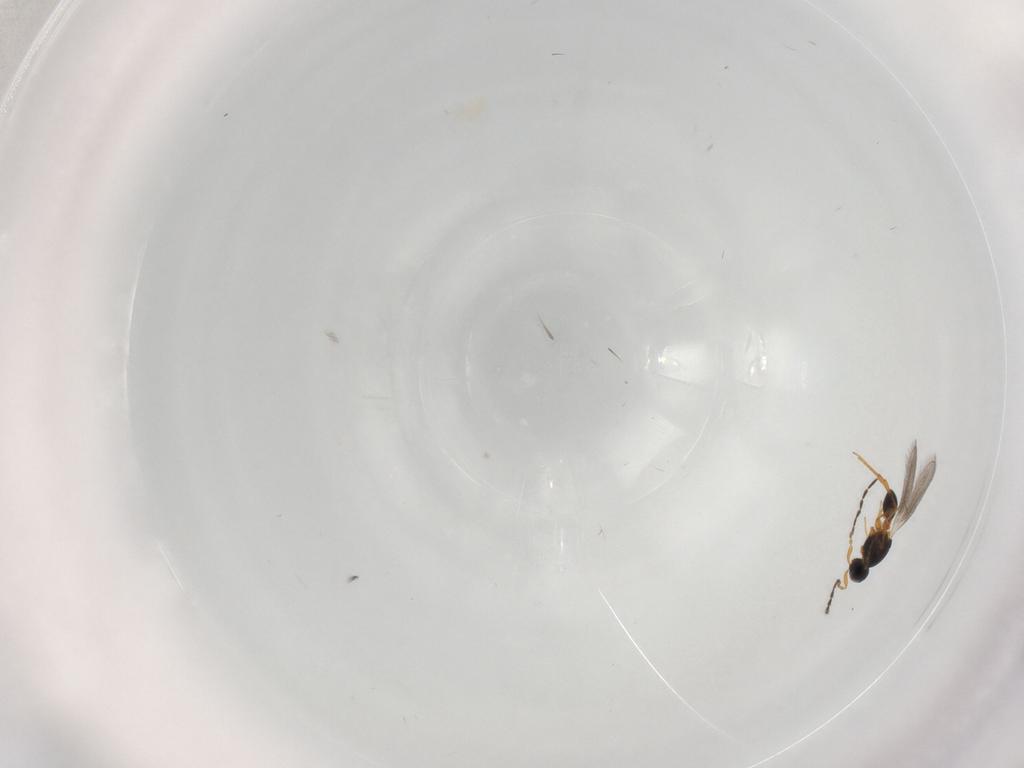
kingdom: Animalia
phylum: Arthropoda
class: Insecta
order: Hymenoptera
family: Platygastridae
